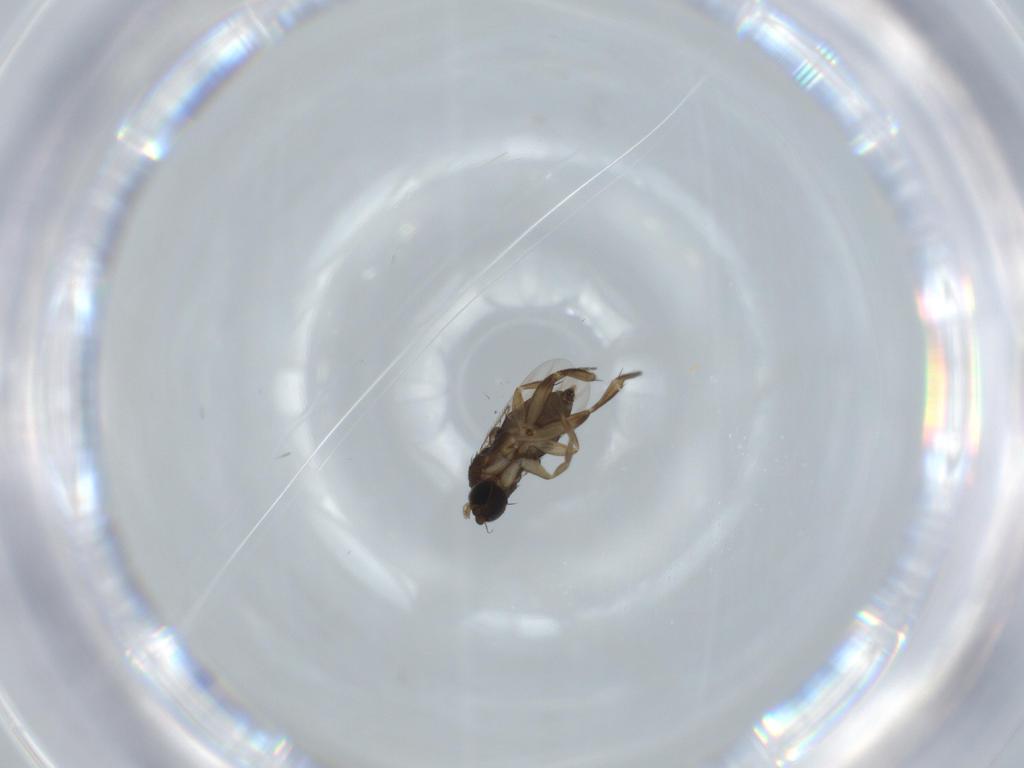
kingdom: Animalia
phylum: Arthropoda
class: Insecta
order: Diptera
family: Phoridae
